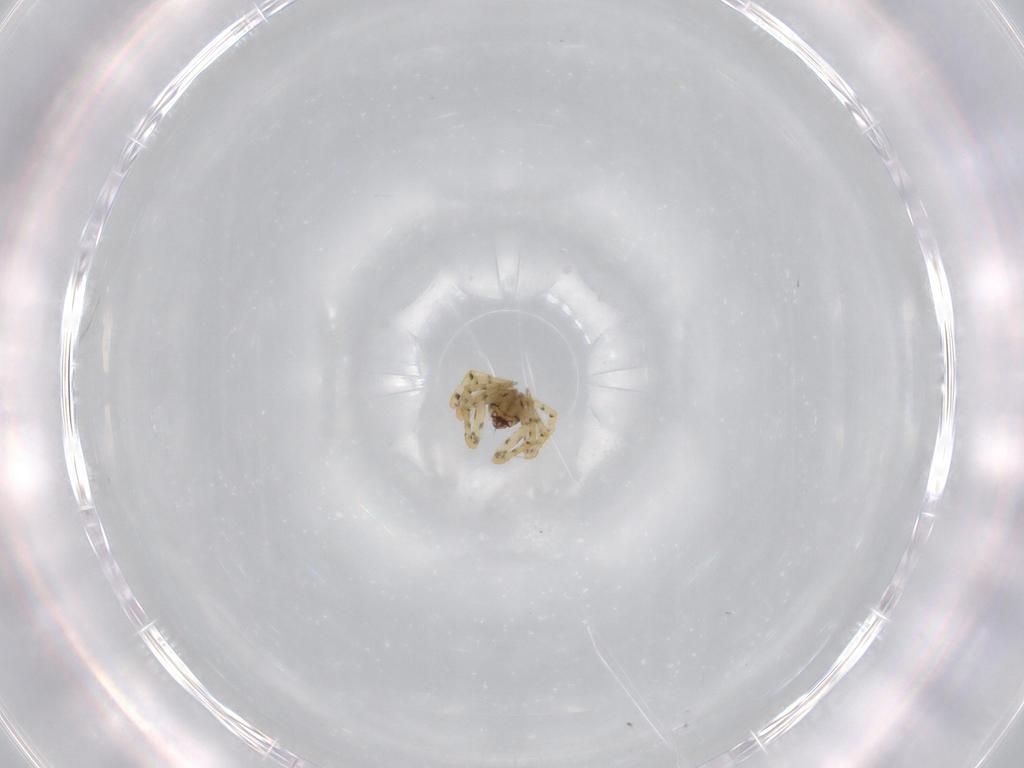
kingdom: Animalia
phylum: Arthropoda
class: Arachnida
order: Araneae
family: Theridiidae
